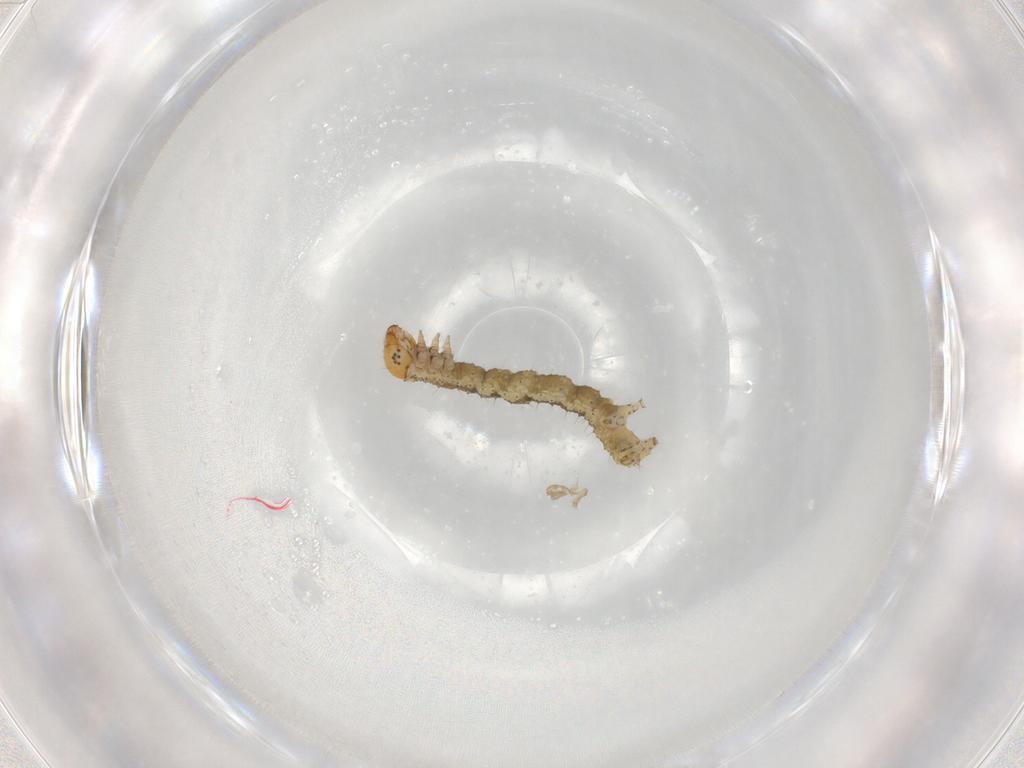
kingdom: Animalia
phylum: Arthropoda
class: Insecta
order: Lepidoptera
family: Geometridae
